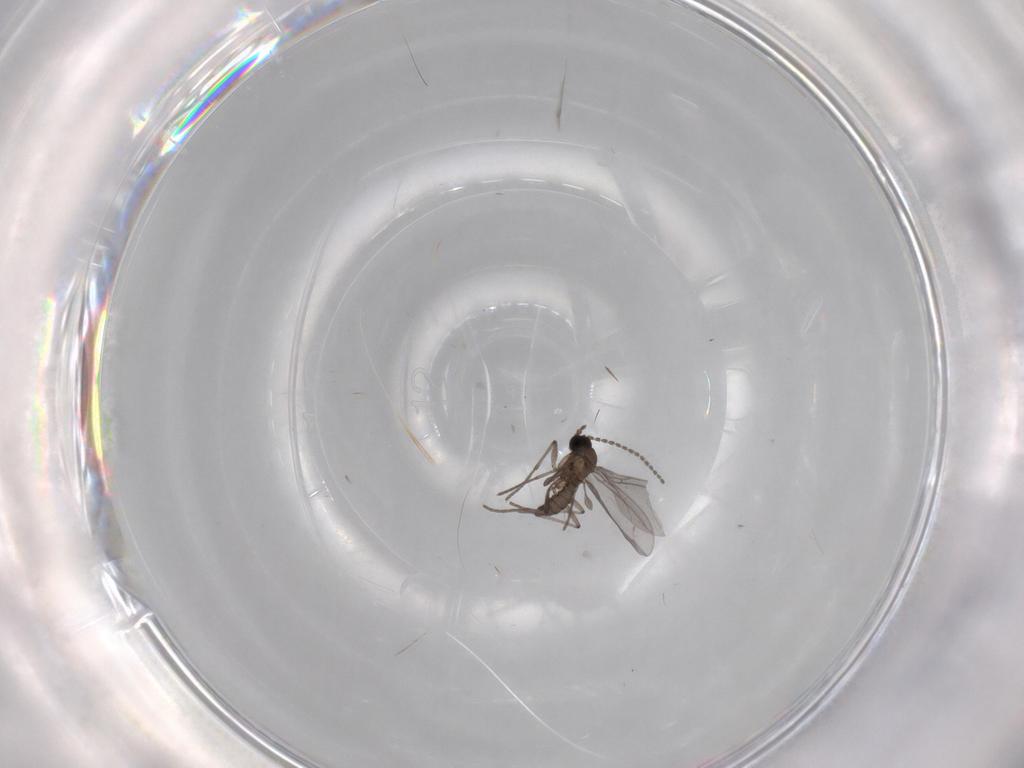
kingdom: Animalia
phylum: Arthropoda
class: Insecta
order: Diptera
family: Sciaridae
